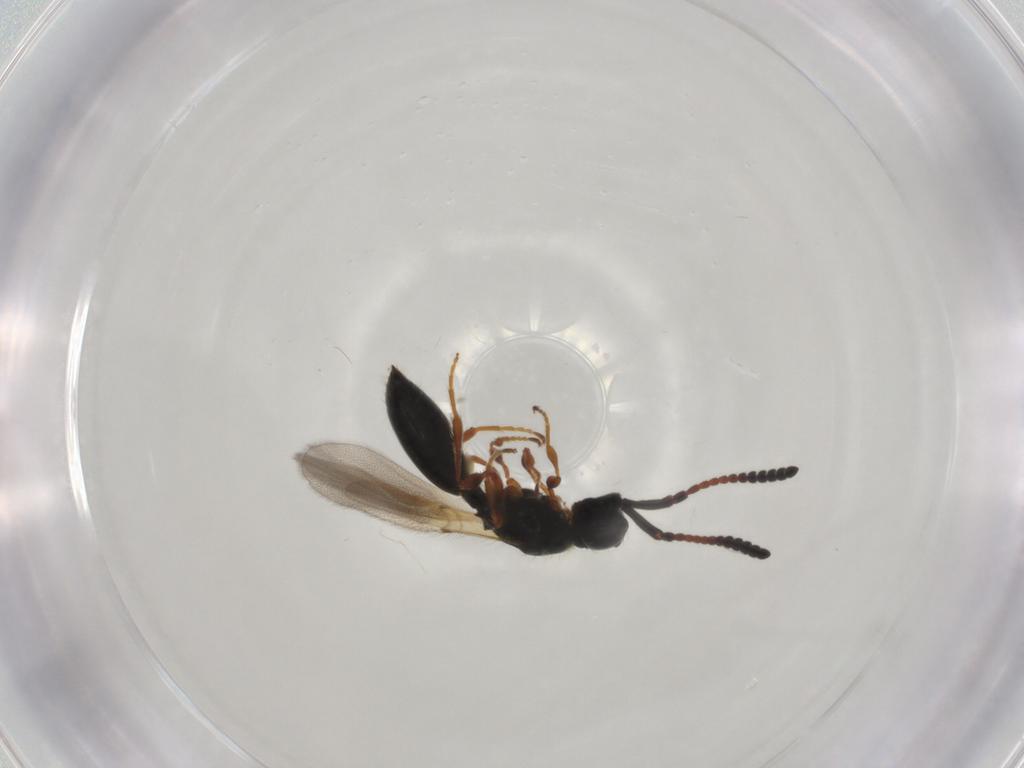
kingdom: Animalia
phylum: Arthropoda
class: Insecta
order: Hymenoptera
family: Diapriidae
